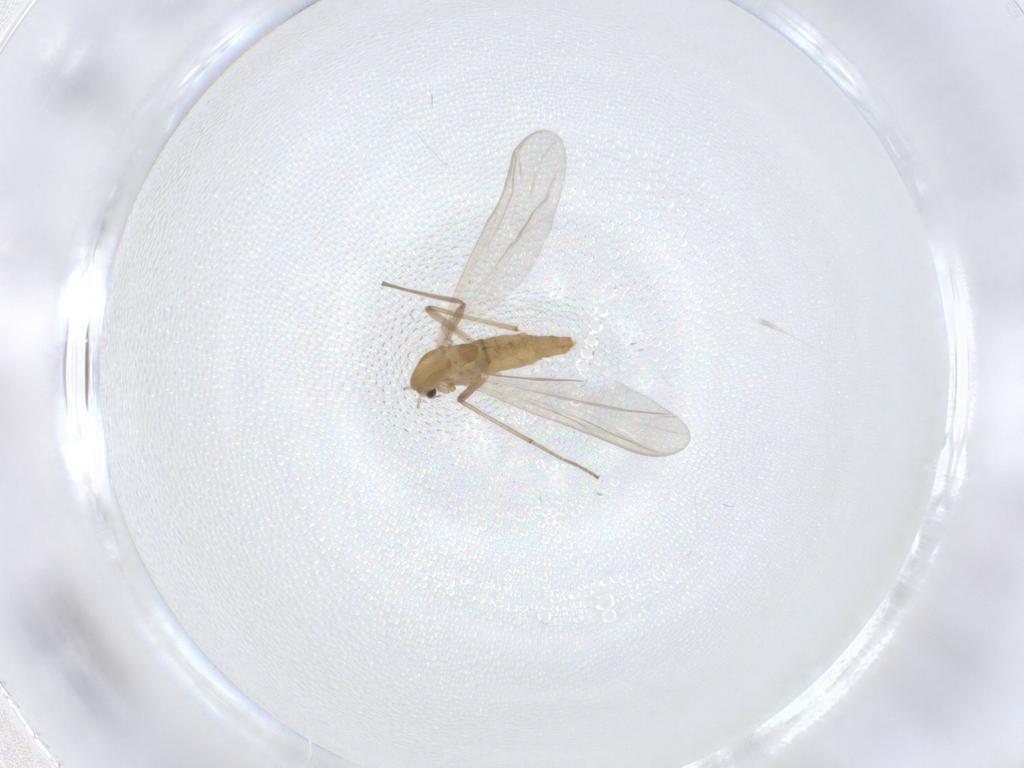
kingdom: Animalia
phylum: Arthropoda
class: Insecta
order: Diptera
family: Chironomidae
